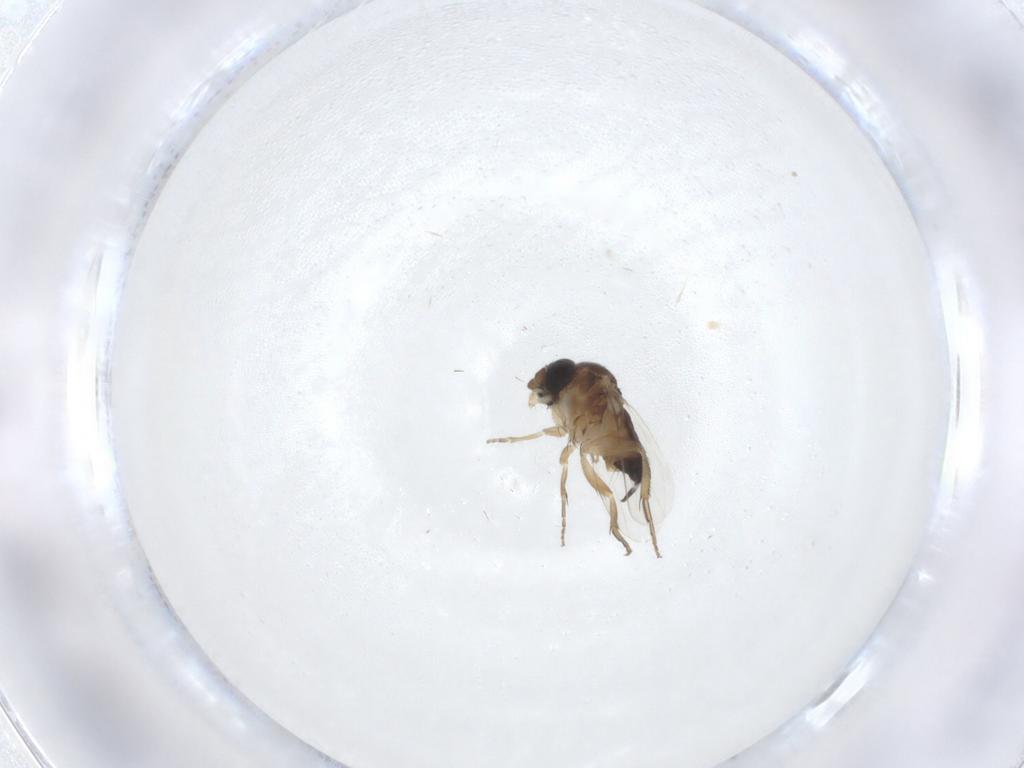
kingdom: Animalia
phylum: Arthropoda
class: Insecta
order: Diptera
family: Phoridae
